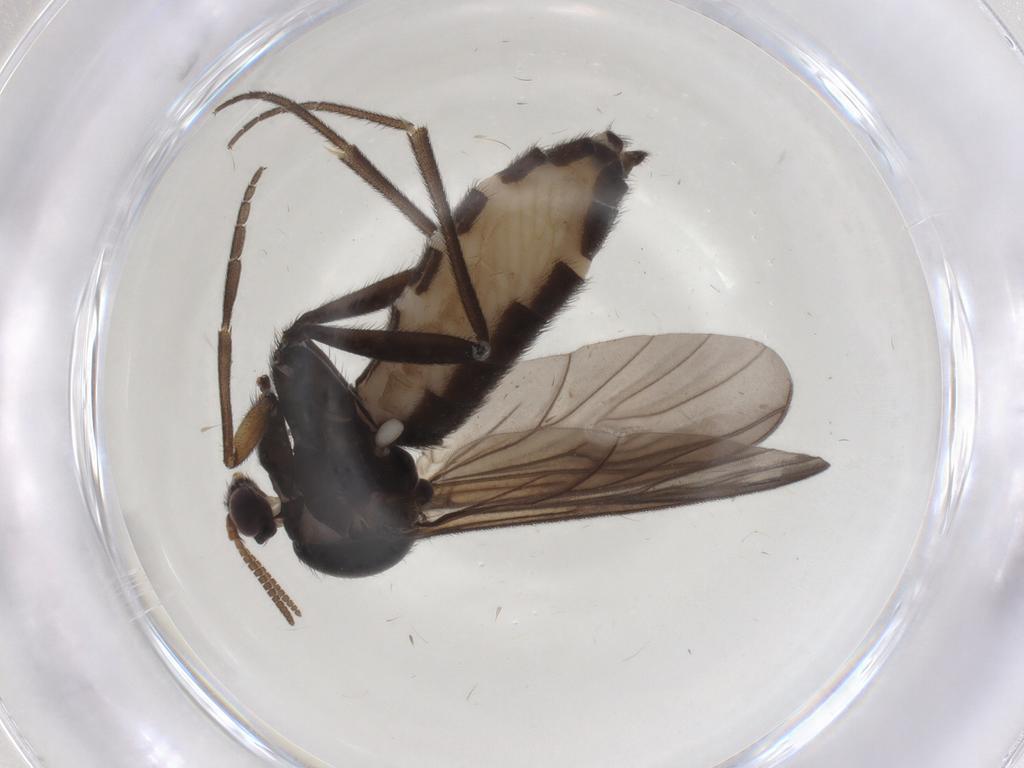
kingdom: Animalia
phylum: Arthropoda
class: Insecta
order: Diptera
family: Mycetophilidae
